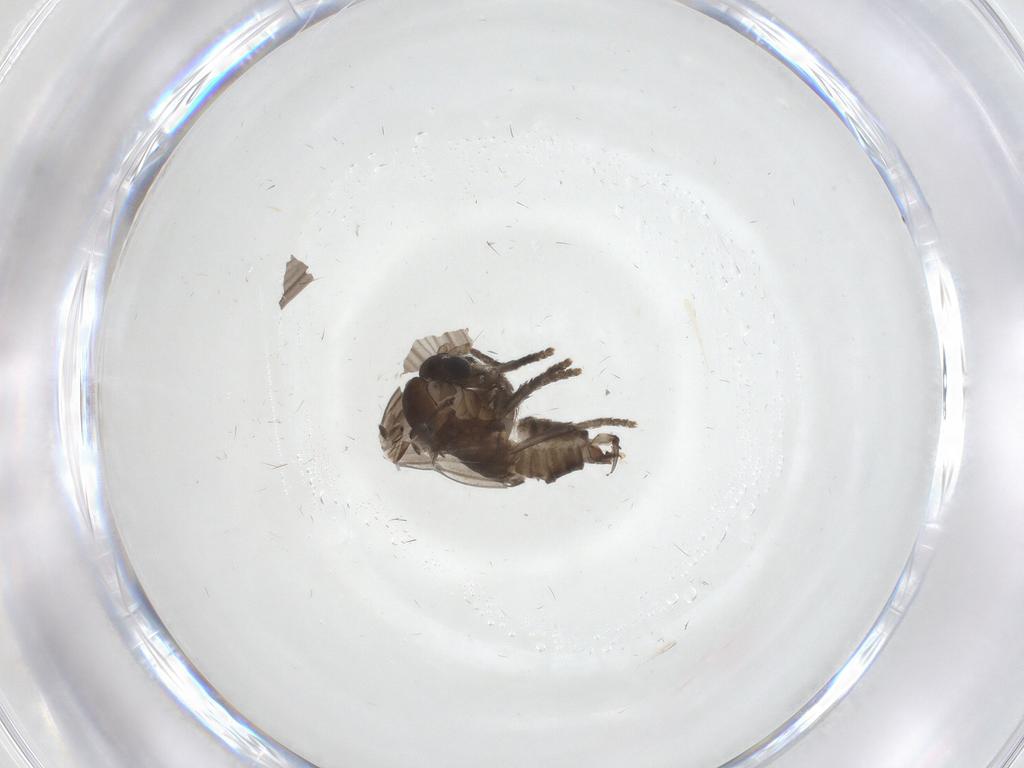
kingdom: Animalia
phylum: Arthropoda
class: Insecta
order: Diptera
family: Psychodidae
